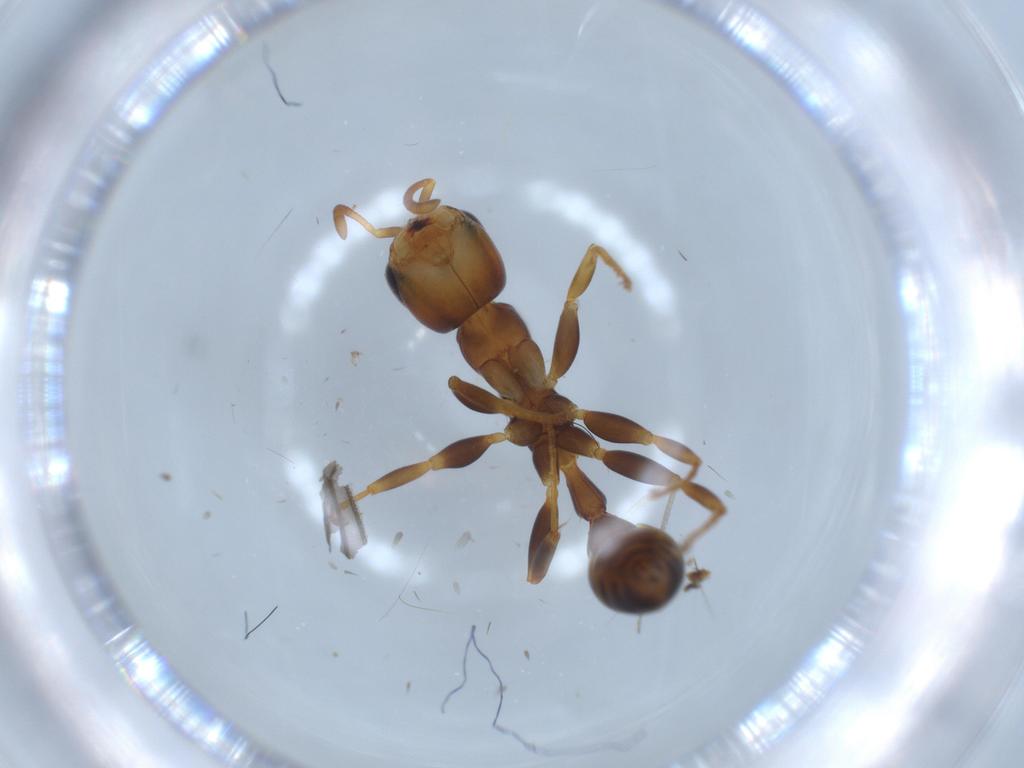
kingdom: Animalia
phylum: Arthropoda
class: Insecta
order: Hymenoptera
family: Formicidae
